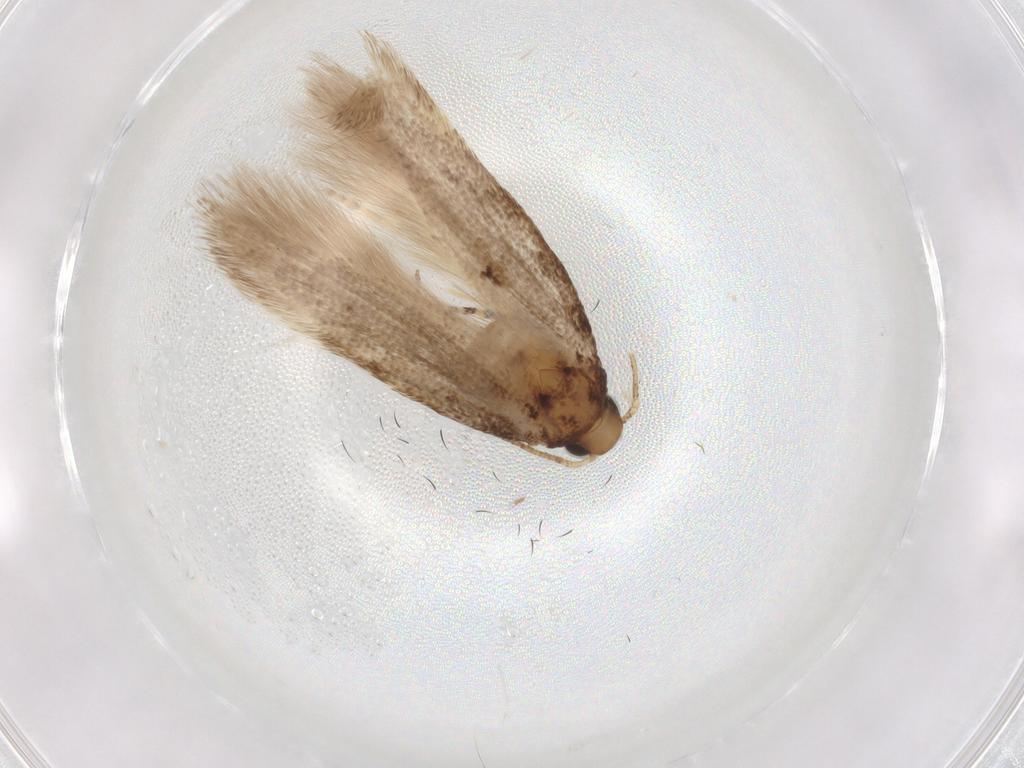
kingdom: Animalia
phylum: Arthropoda
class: Insecta
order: Lepidoptera
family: Gelechiidae
